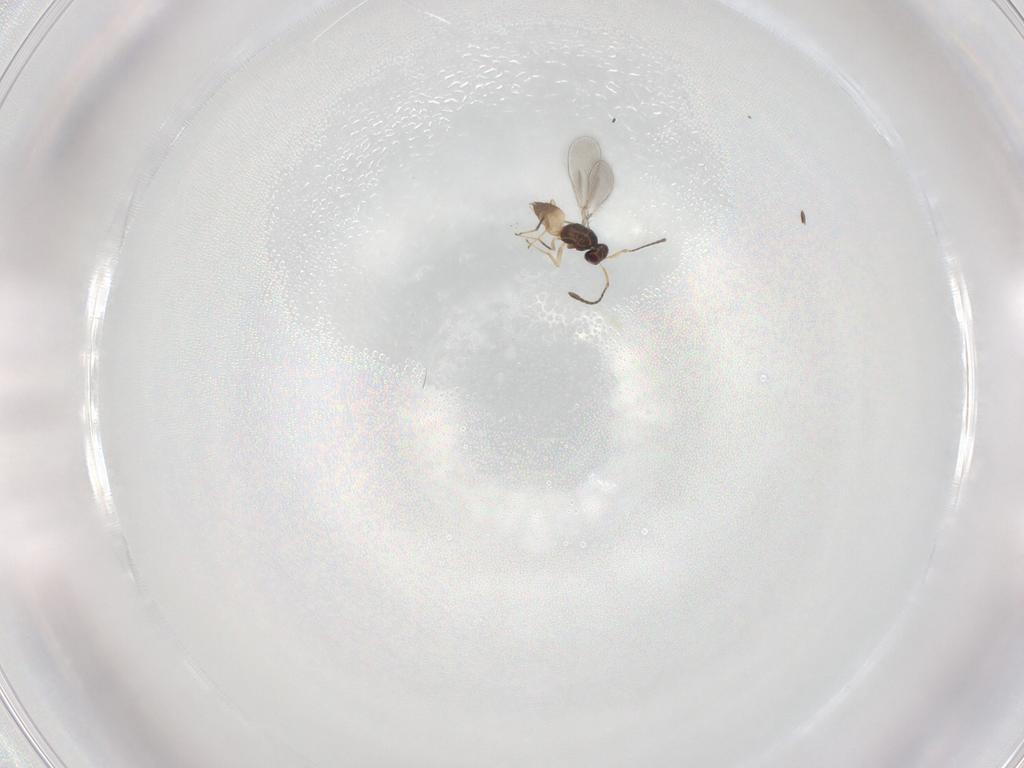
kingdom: Animalia
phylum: Arthropoda
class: Insecta
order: Hymenoptera
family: Mymaridae
